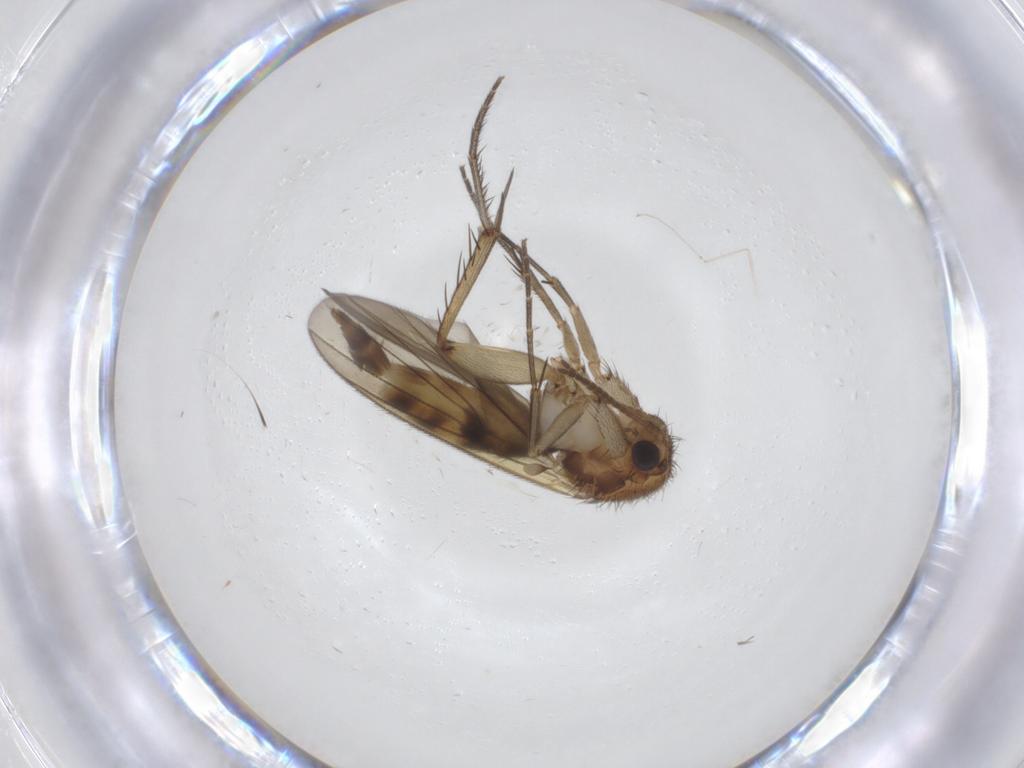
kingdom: Animalia
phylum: Arthropoda
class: Insecta
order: Diptera
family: Mycetophilidae
